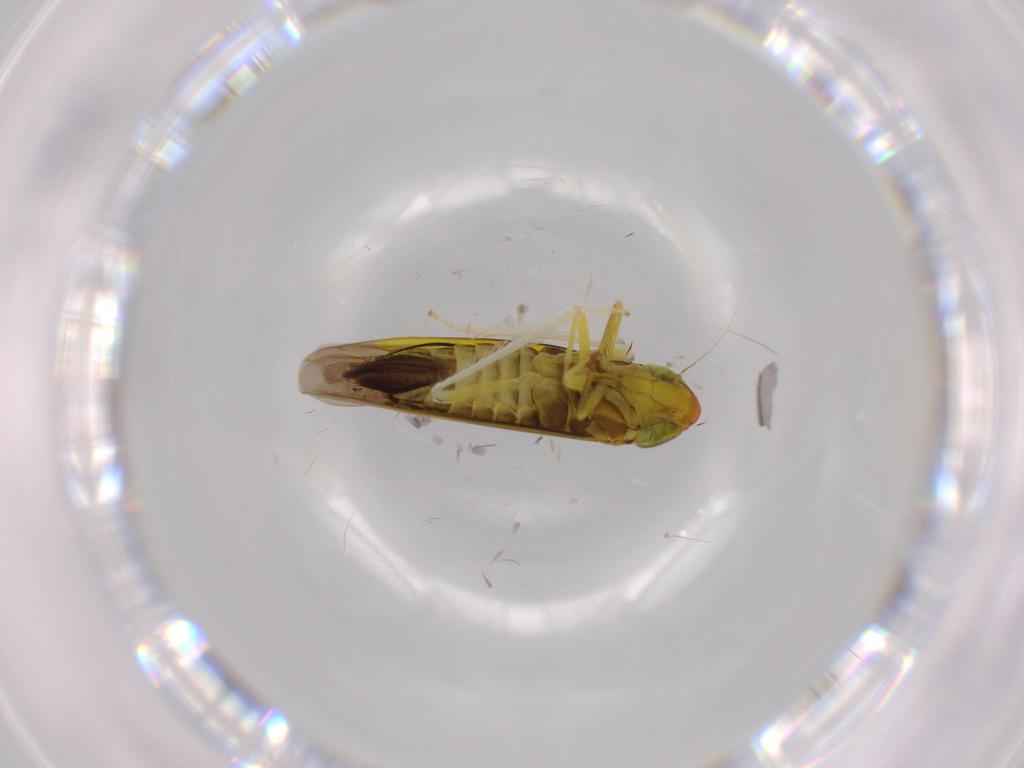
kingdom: Animalia
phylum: Arthropoda
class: Insecta
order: Hemiptera
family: Cicadellidae
